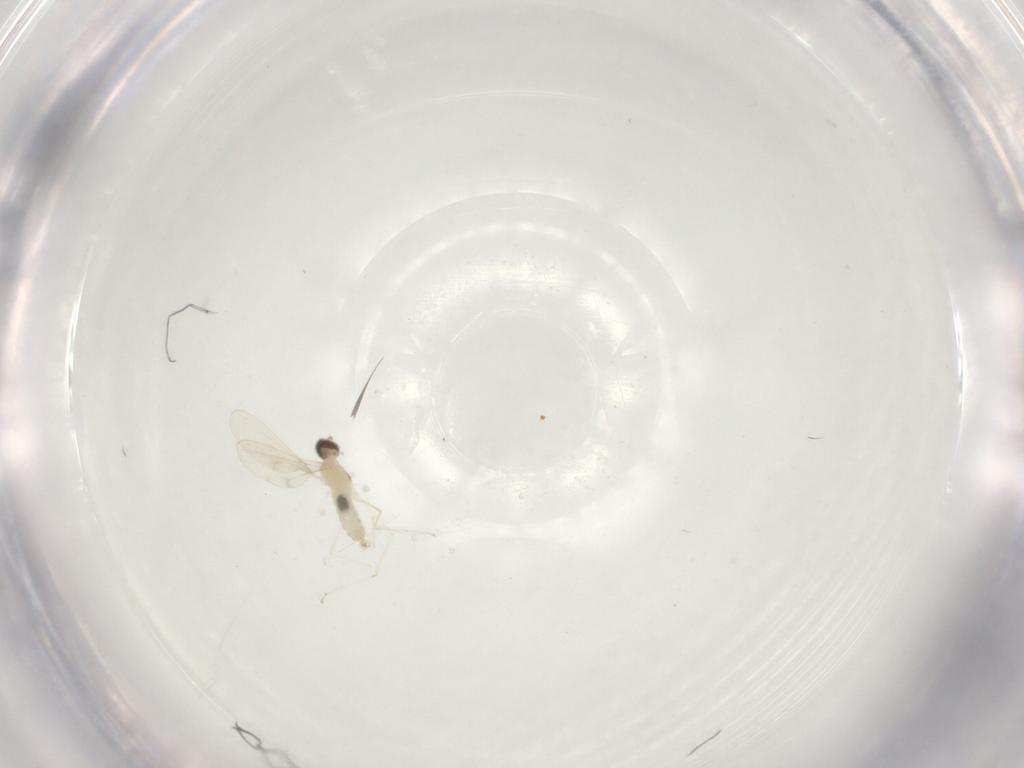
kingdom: Animalia
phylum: Arthropoda
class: Insecta
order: Diptera
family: Cecidomyiidae
